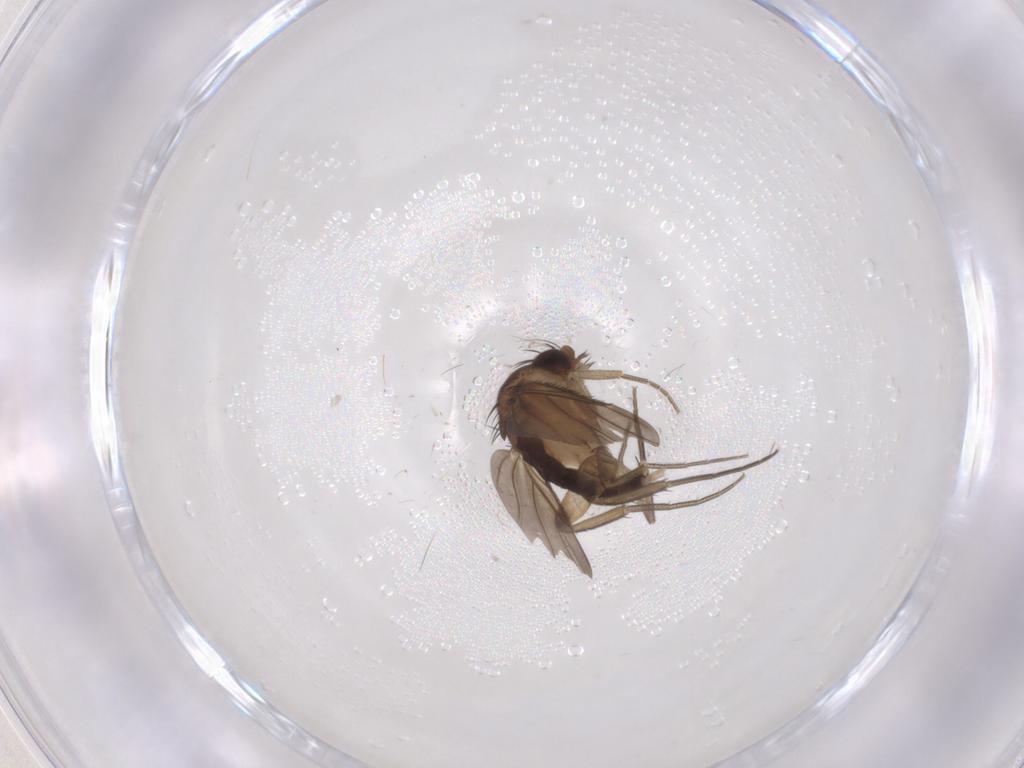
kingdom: Animalia
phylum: Arthropoda
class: Insecta
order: Diptera
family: Phoridae
